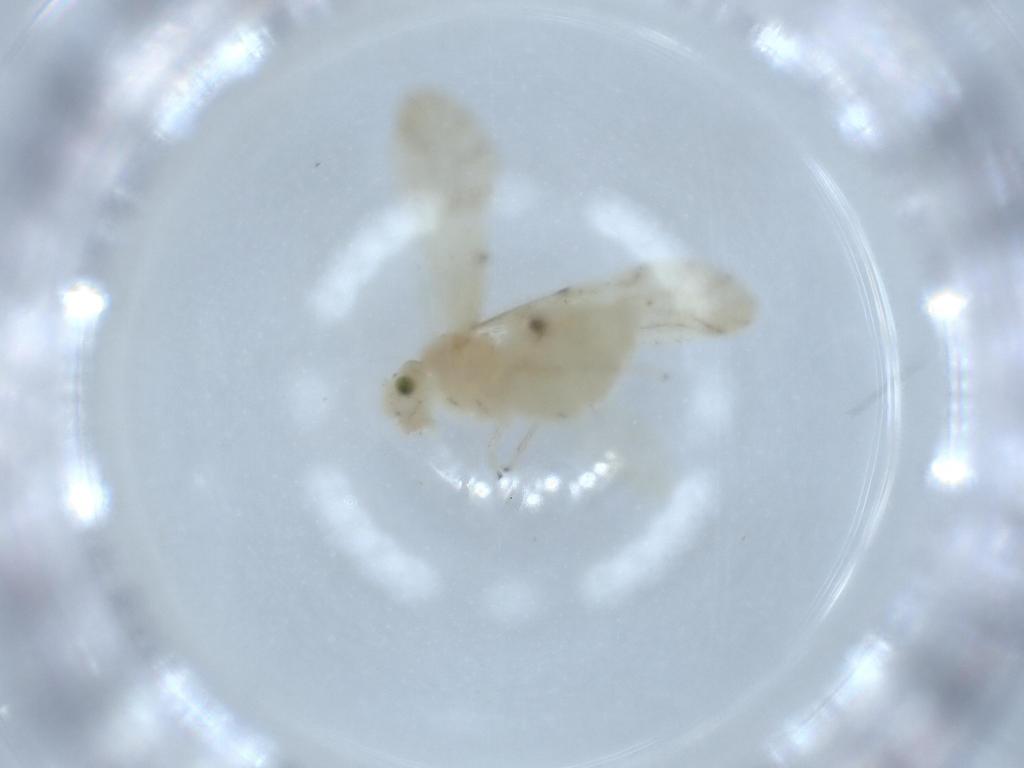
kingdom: Animalia
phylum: Arthropoda
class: Insecta
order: Psocodea
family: Caeciliusidae
